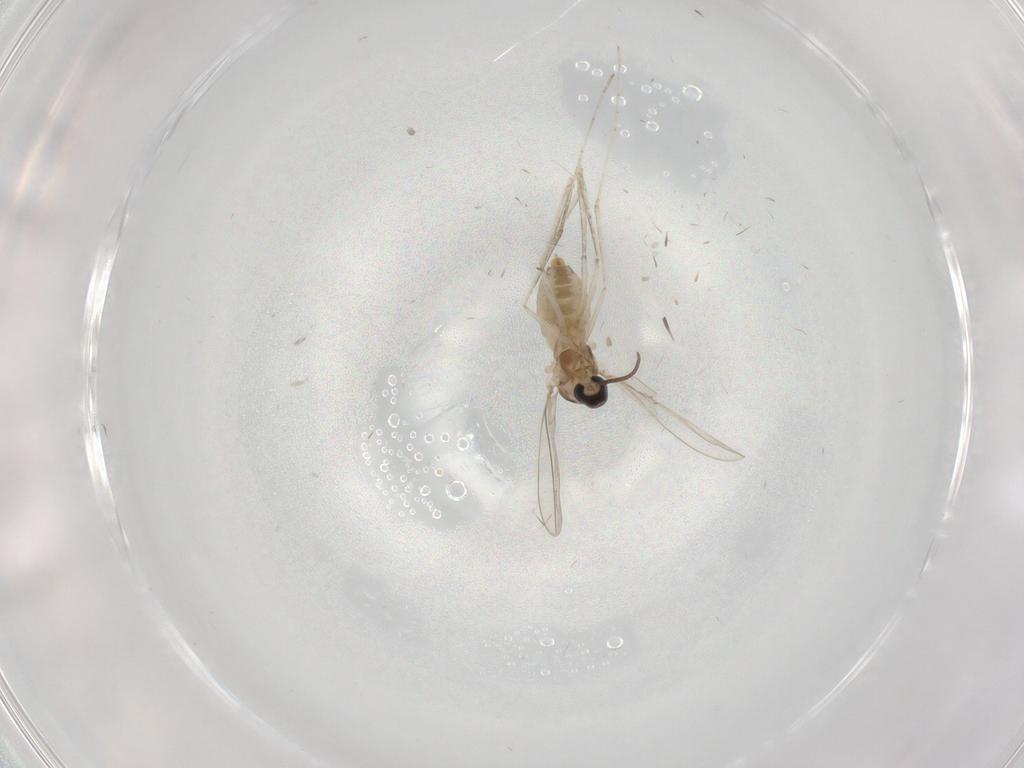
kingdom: Animalia
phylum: Arthropoda
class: Insecta
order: Diptera
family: Cecidomyiidae
